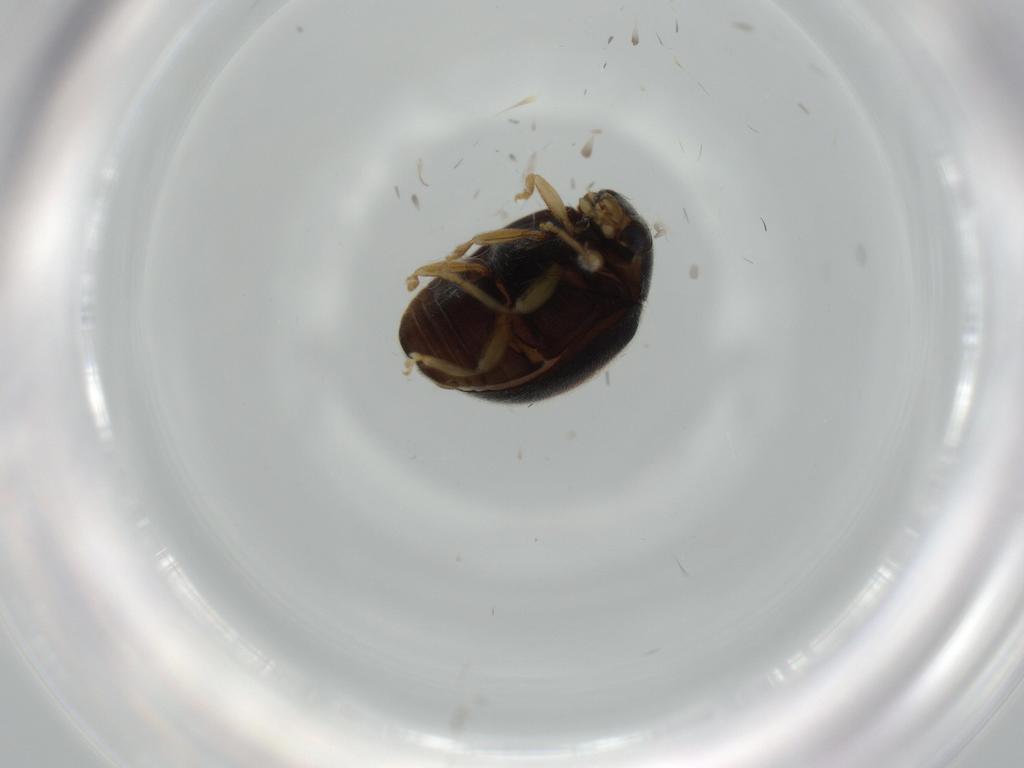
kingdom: Animalia
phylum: Arthropoda
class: Insecta
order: Coleoptera
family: Coccinellidae
